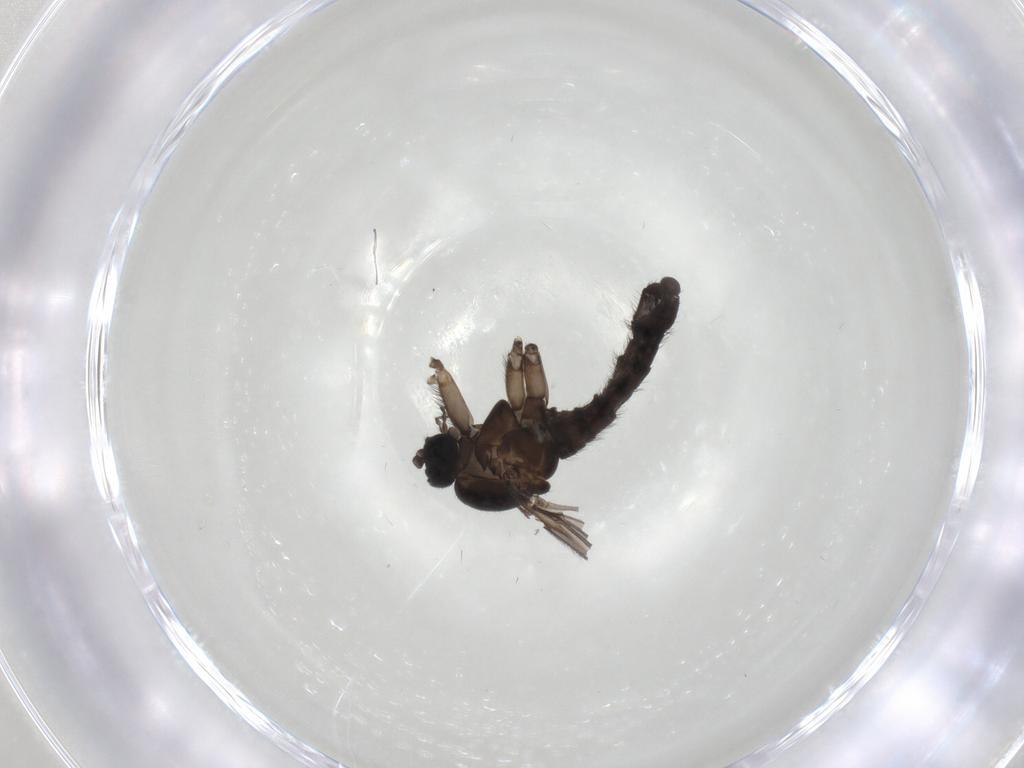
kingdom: Animalia
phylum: Arthropoda
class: Insecta
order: Diptera
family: Sciaridae
